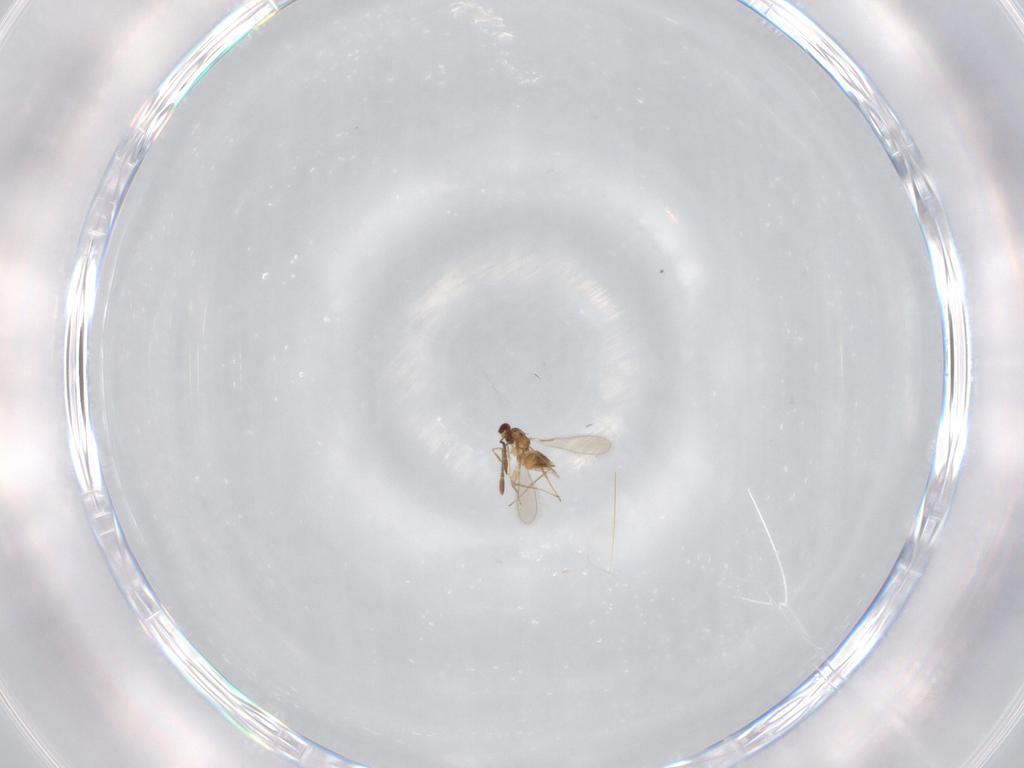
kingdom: Animalia
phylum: Arthropoda
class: Insecta
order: Hymenoptera
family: Mymaridae
